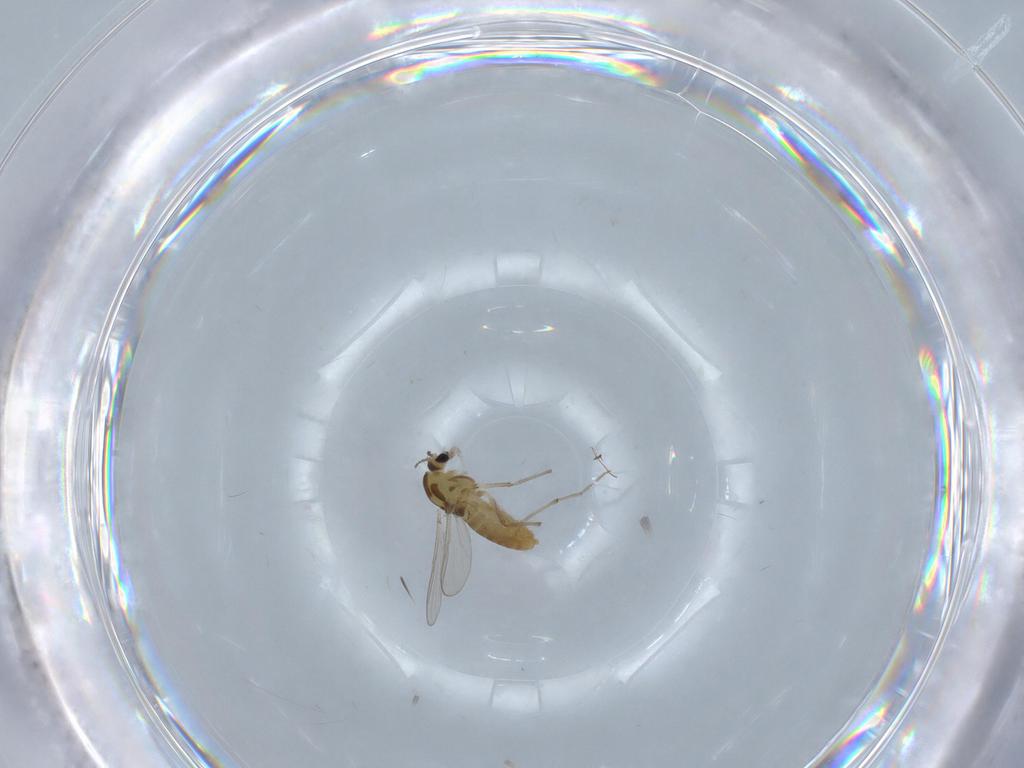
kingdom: Animalia
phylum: Arthropoda
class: Insecta
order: Diptera
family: Chironomidae
